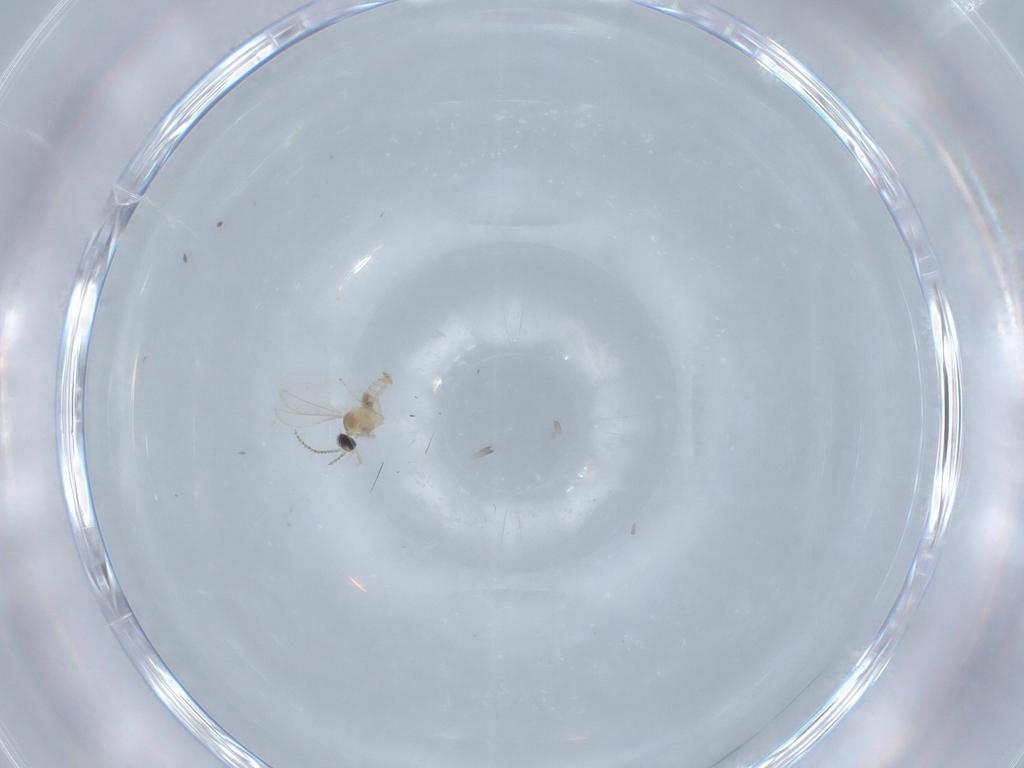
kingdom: Animalia
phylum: Arthropoda
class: Insecta
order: Diptera
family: Cecidomyiidae
